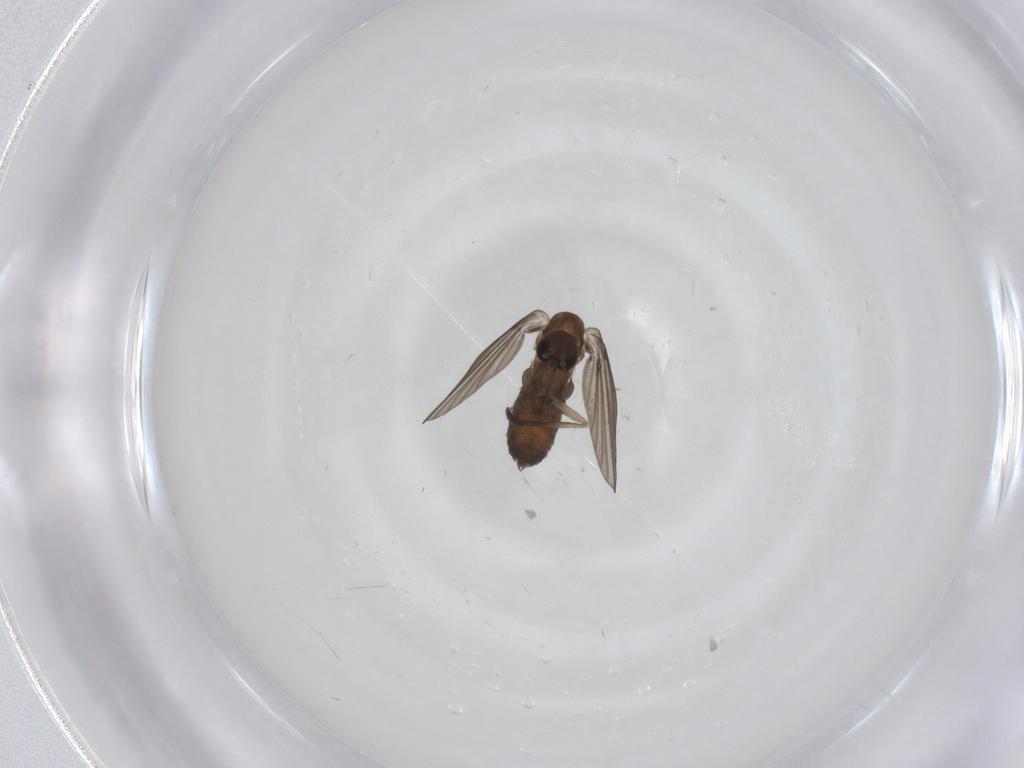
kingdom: Animalia
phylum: Arthropoda
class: Insecta
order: Diptera
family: Psychodidae
